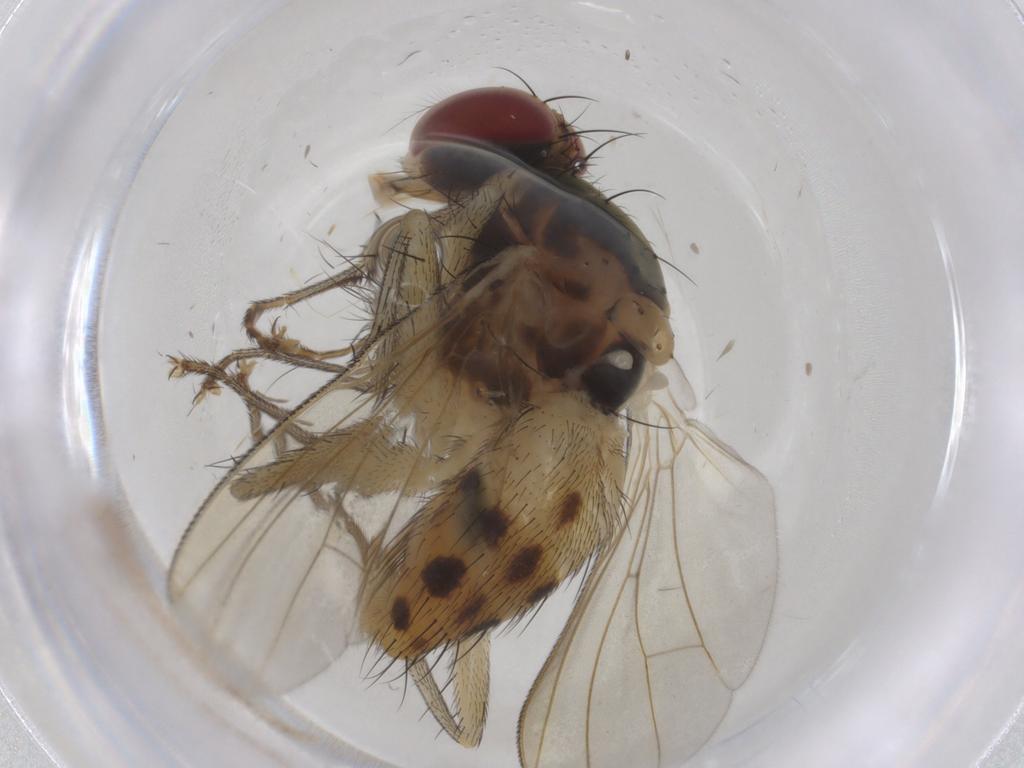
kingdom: Animalia
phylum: Arthropoda
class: Insecta
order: Diptera
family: Muscidae
